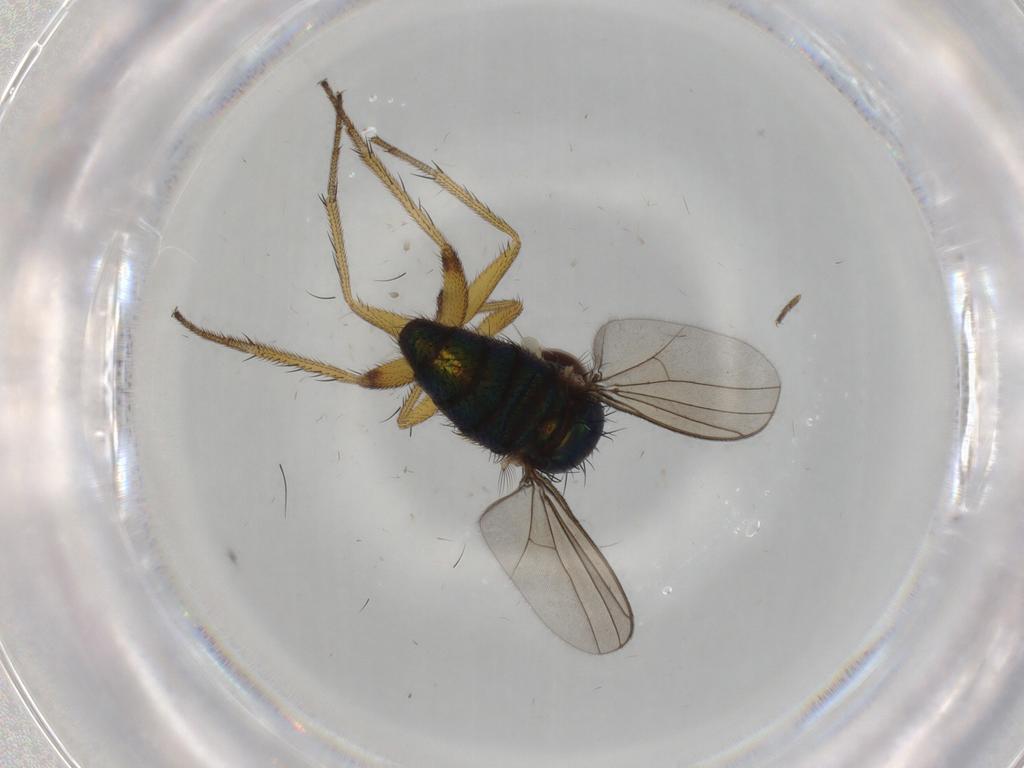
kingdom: Animalia
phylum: Arthropoda
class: Insecta
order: Diptera
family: Dolichopodidae
